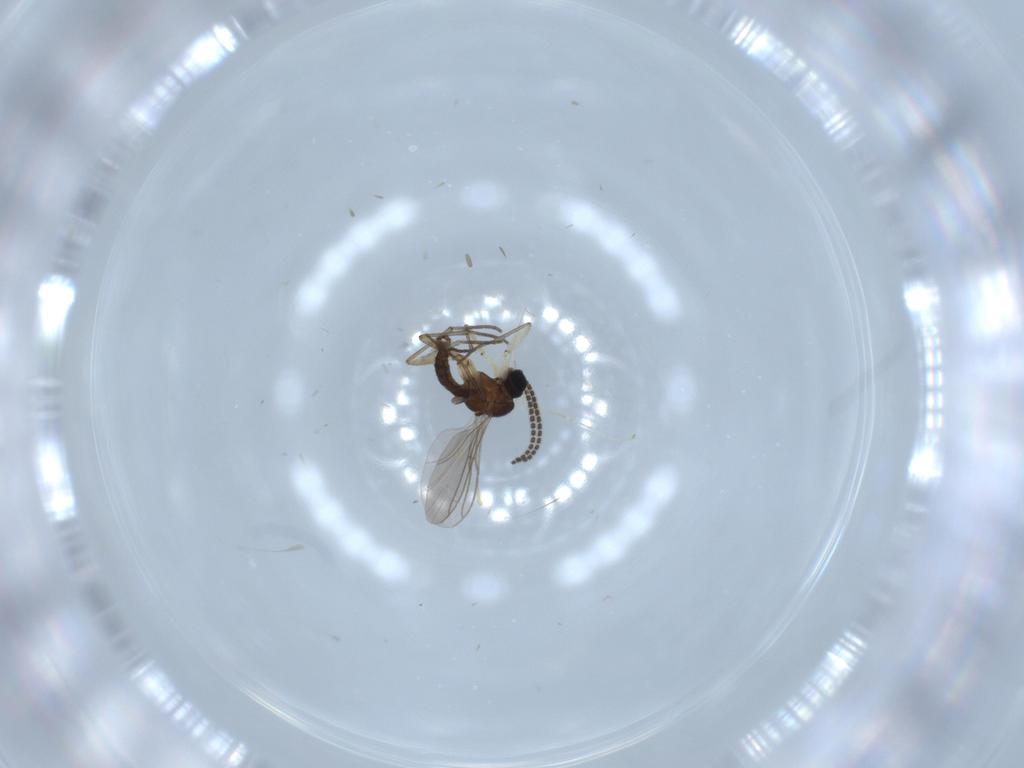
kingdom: Animalia
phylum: Arthropoda
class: Insecta
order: Diptera
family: Sciaridae
